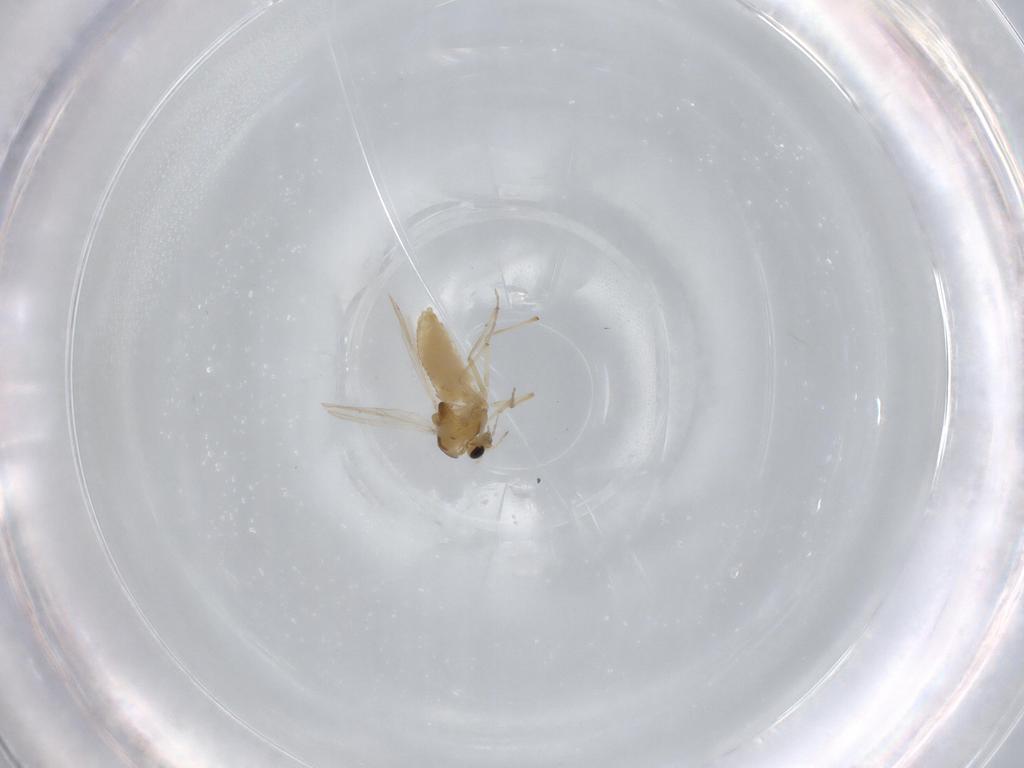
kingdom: Animalia
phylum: Arthropoda
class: Insecta
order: Diptera
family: Chironomidae
